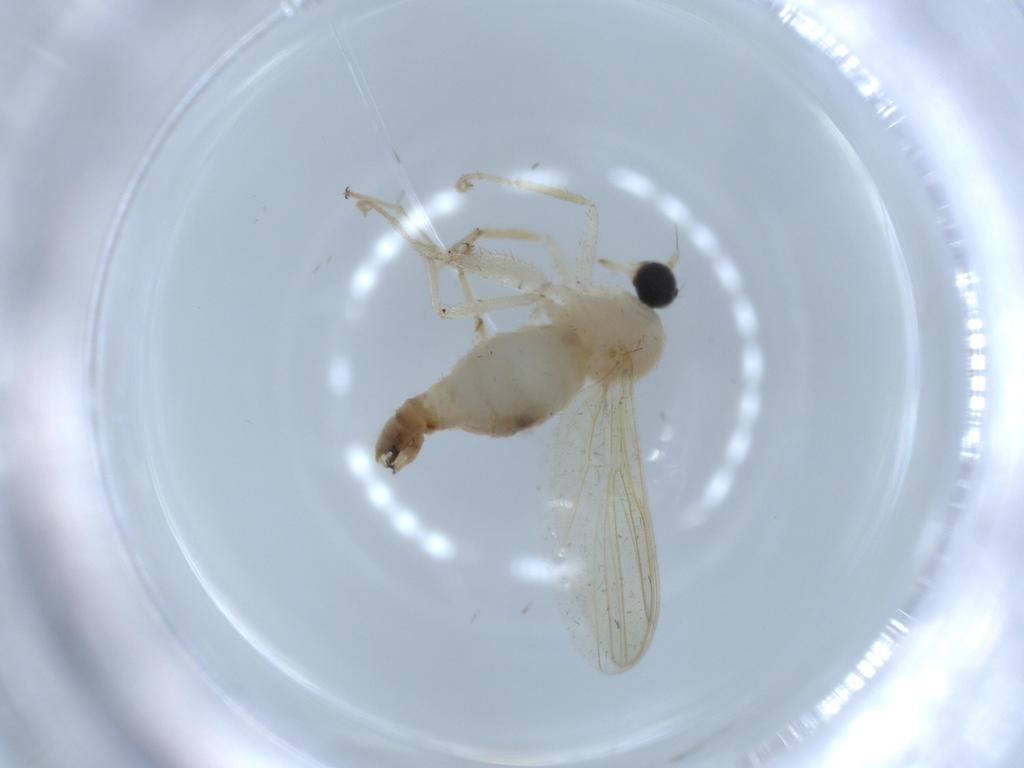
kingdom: Animalia
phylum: Arthropoda
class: Insecta
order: Diptera
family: Hybotidae
